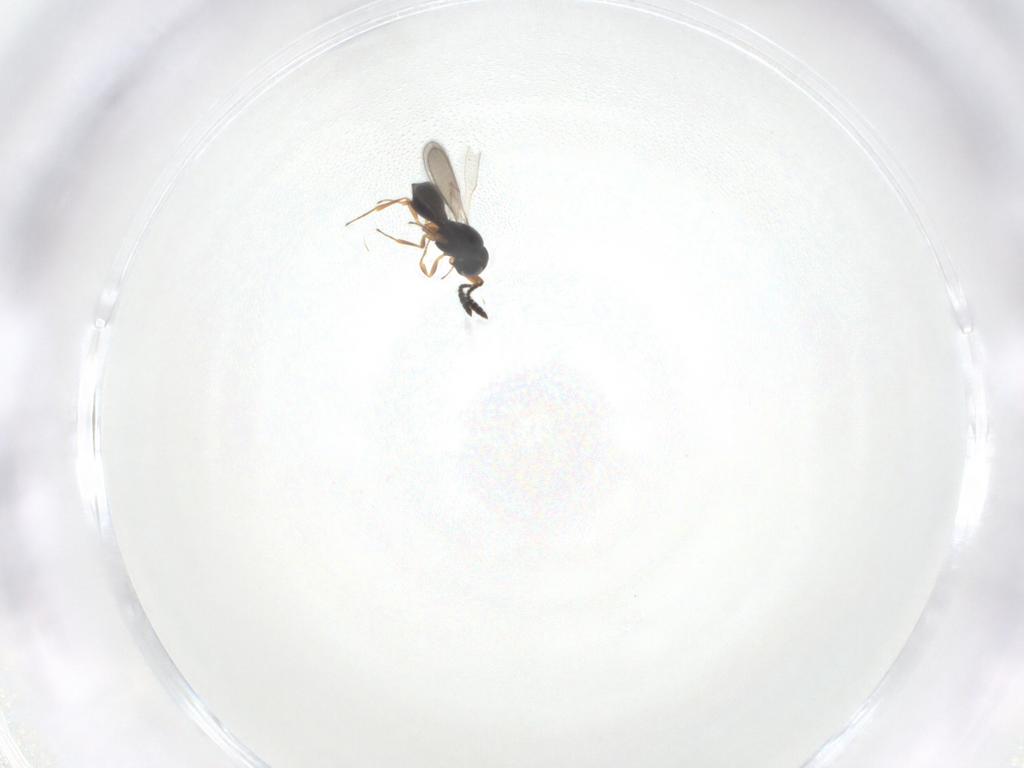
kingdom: Animalia
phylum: Arthropoda
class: Insecta
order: Hymenoptera
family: Scelionidae
